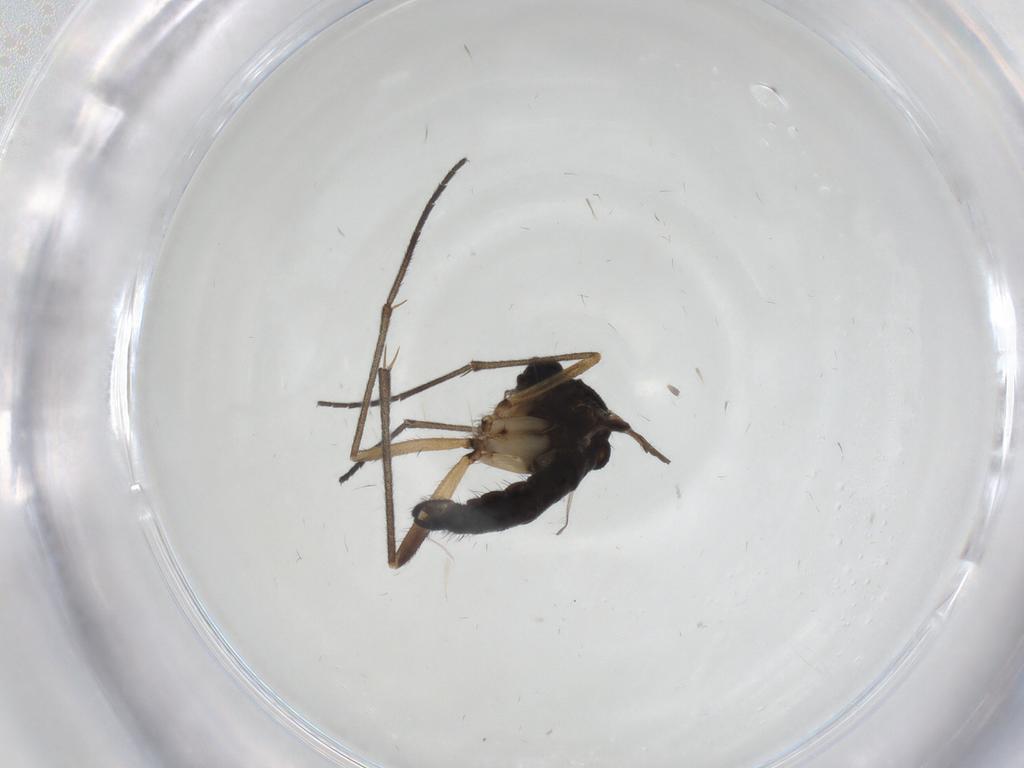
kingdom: Animalia
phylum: Arthropoda
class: Insecta
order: Diptera
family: Sciaridae
